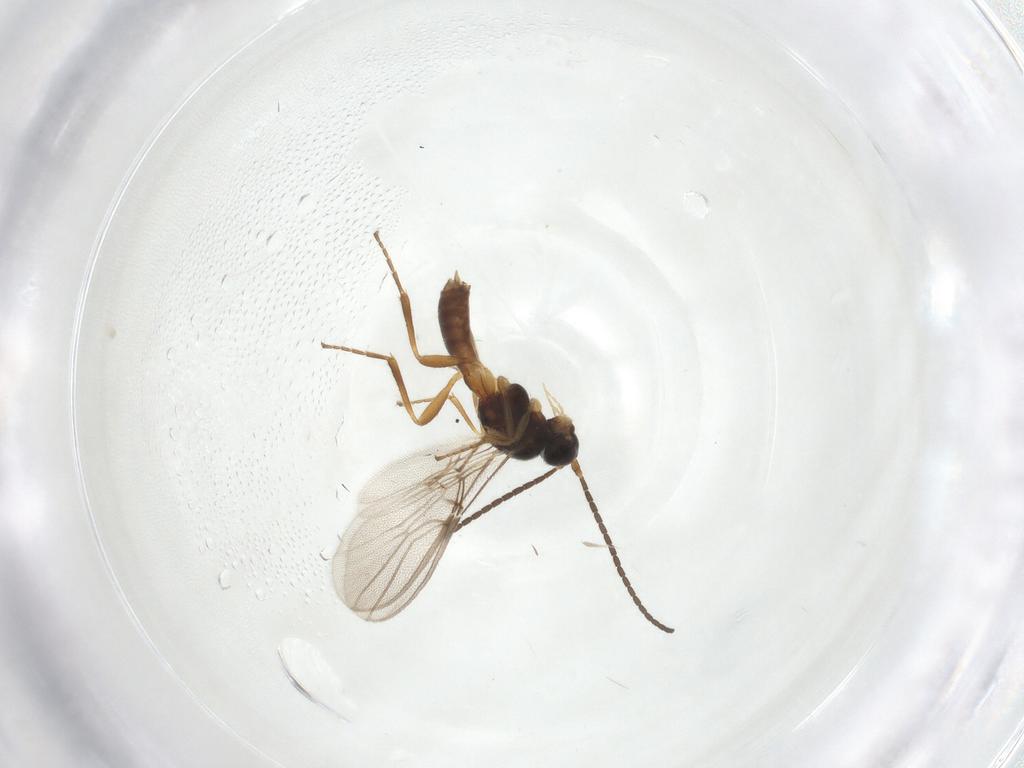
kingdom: Animalia
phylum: Arthropoda
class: Insecta
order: Hymenoptera
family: Braconidae
